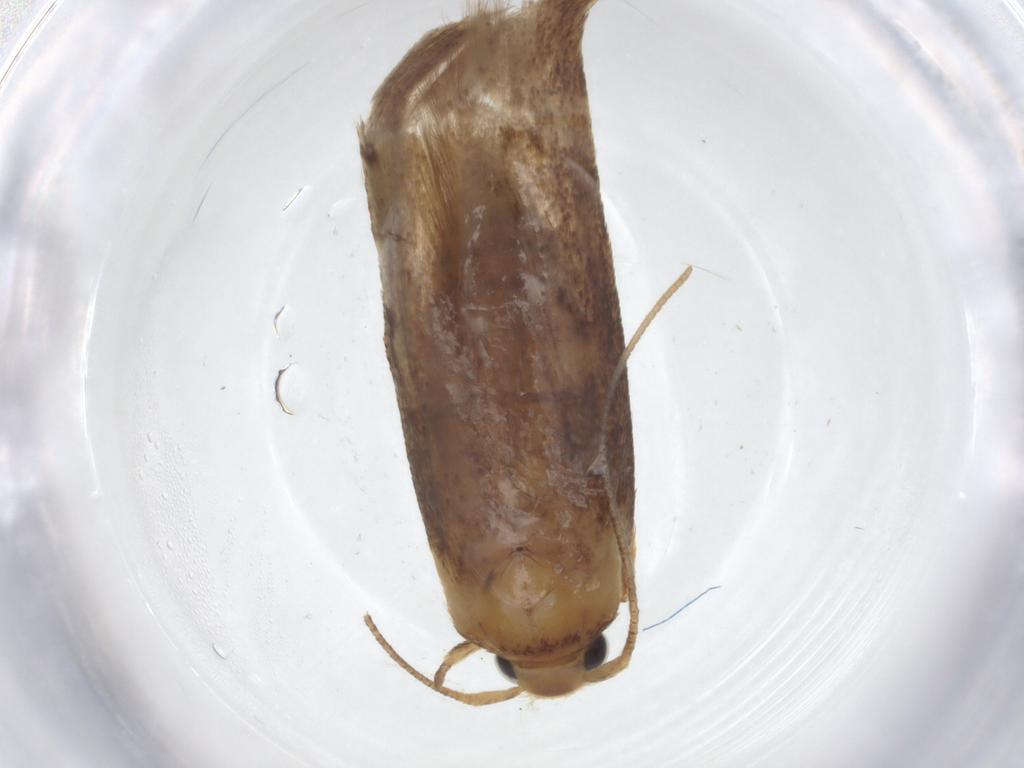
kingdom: Animalia
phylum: Arthropoda
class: Insecta
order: Lepidoptera
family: Coleophoridae
